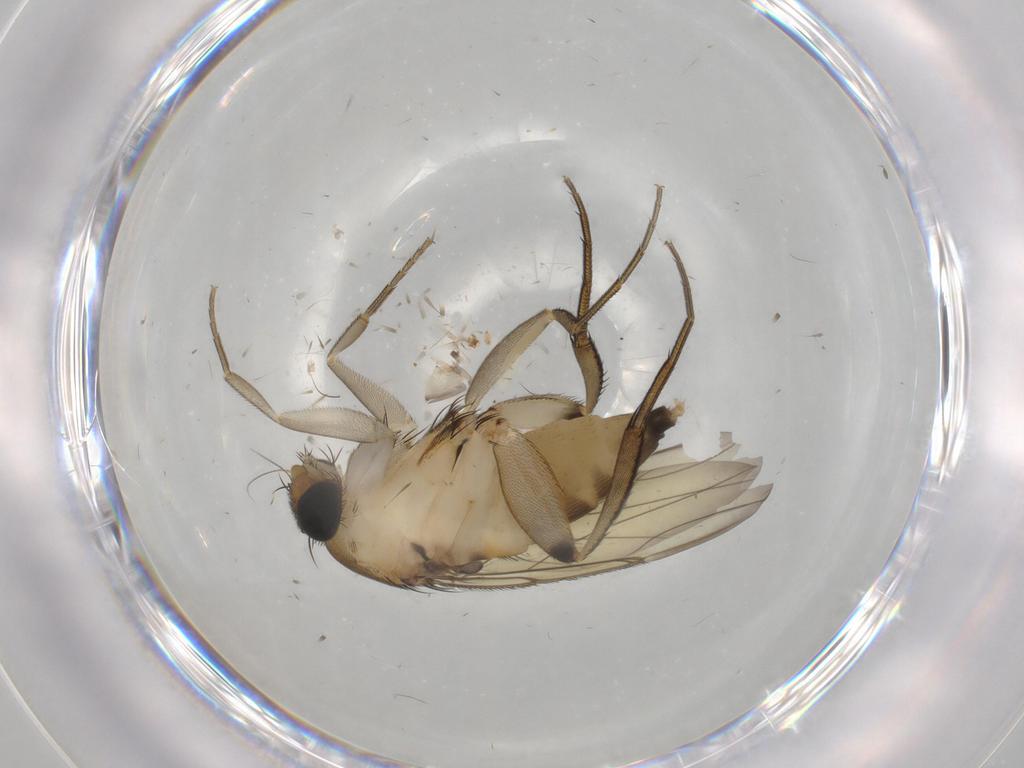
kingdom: Animalia
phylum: Arthropoda
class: Insecta
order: Diptera
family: Phoridae
